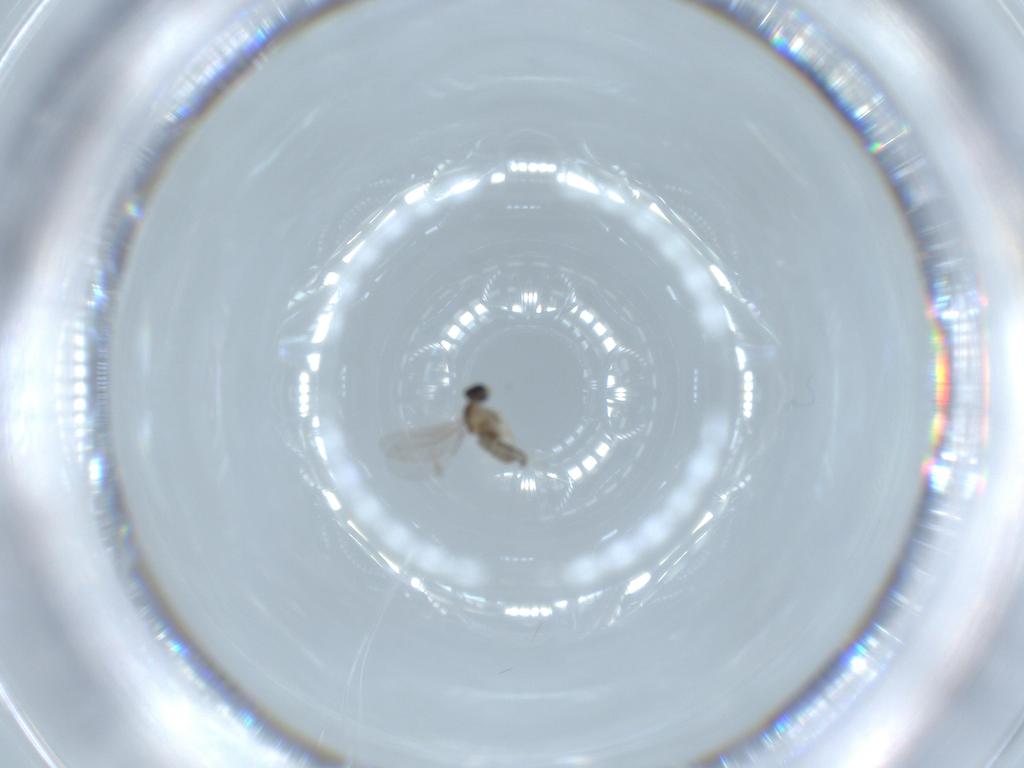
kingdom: Animalia
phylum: Arthropoda
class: Insecta
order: Diptera
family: Cecidomyiidae
